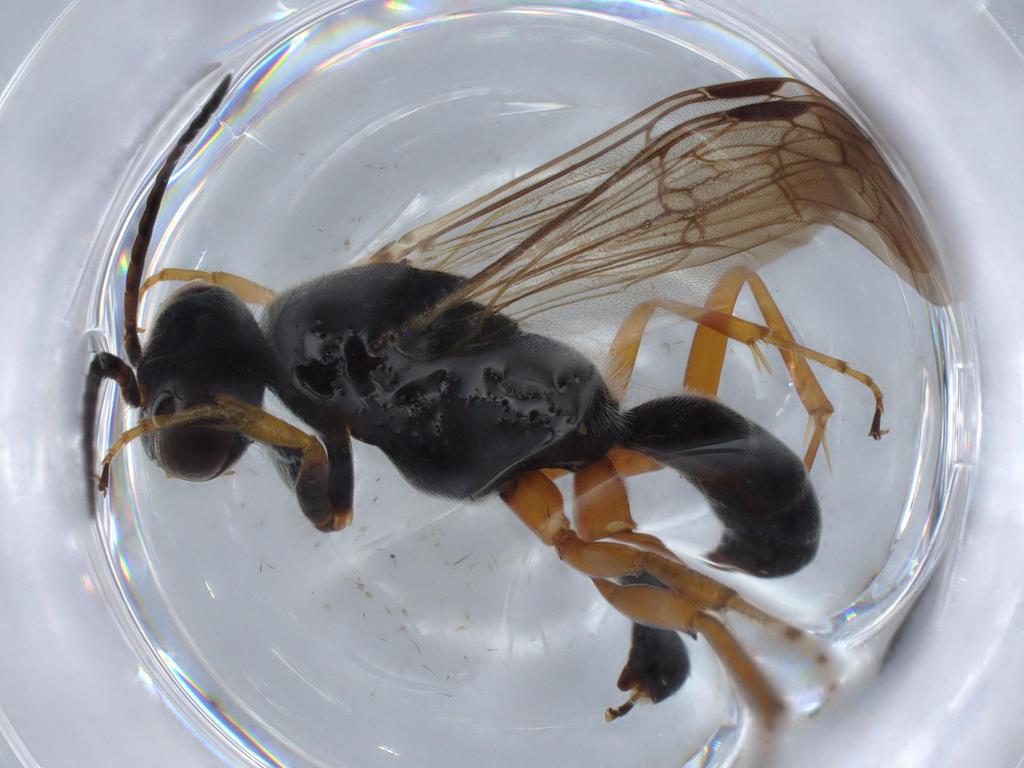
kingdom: Animalia
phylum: Arthropoda
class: Insecta
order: Hymenoptera
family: Pompilidae
